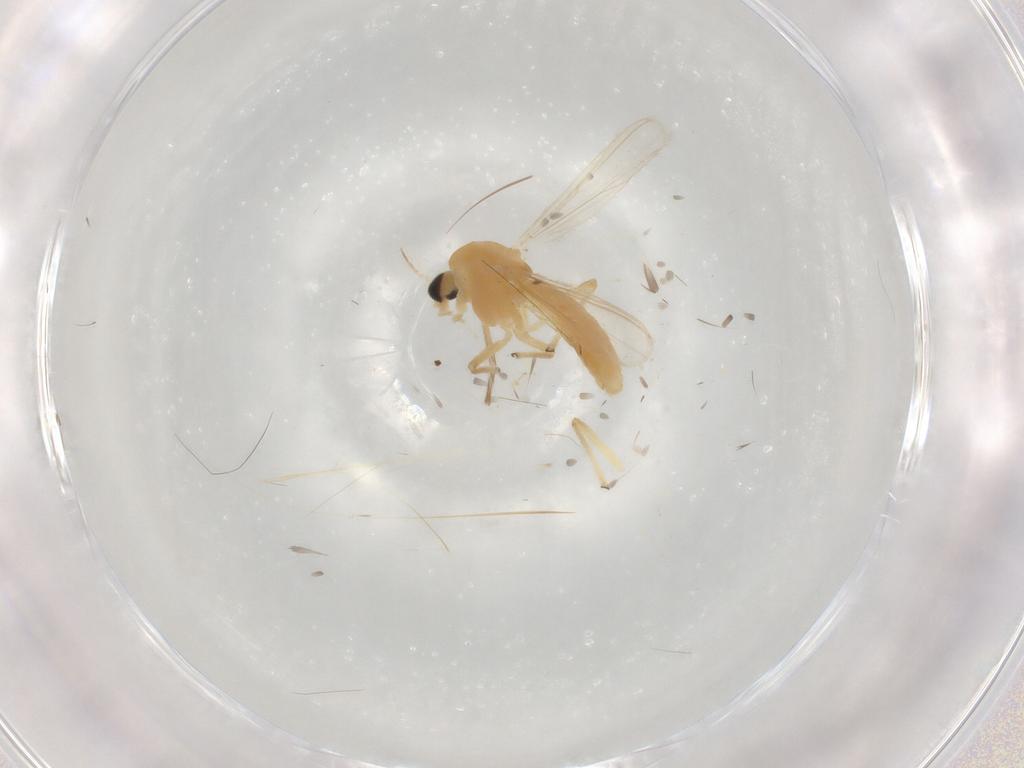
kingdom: Animalia
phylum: Arthropoda
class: Insecta
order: Diptera
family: Chironomidae
